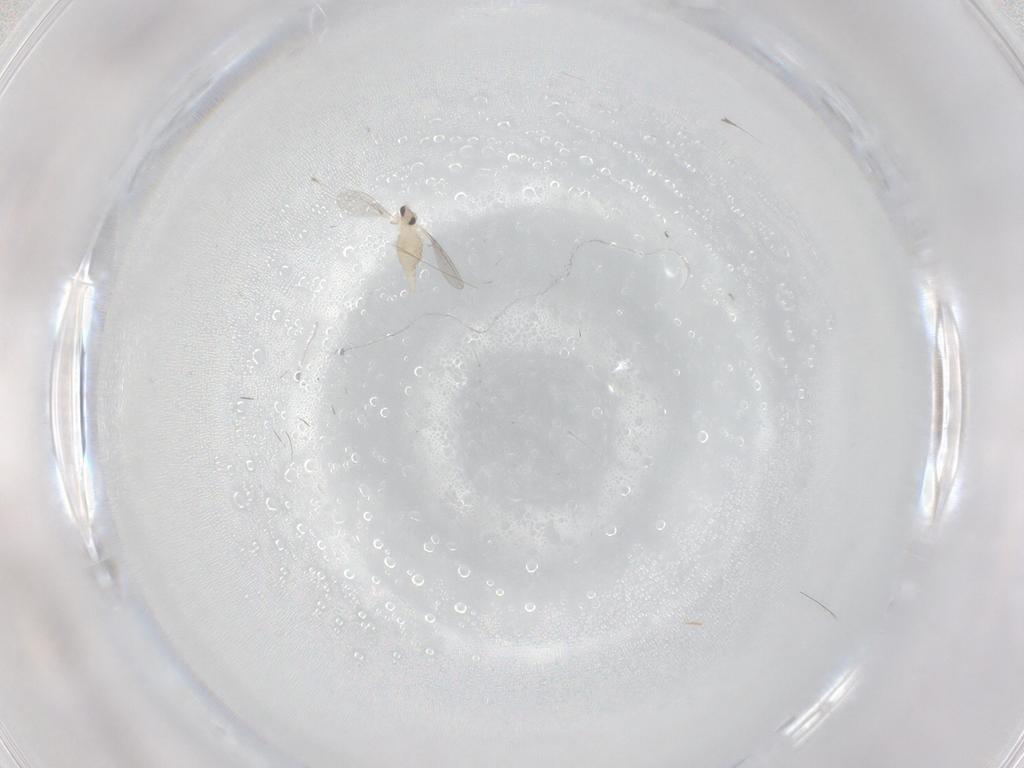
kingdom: Animalia
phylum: Arthropoda
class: Insecta
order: Diptera
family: Cecidomyiidae
